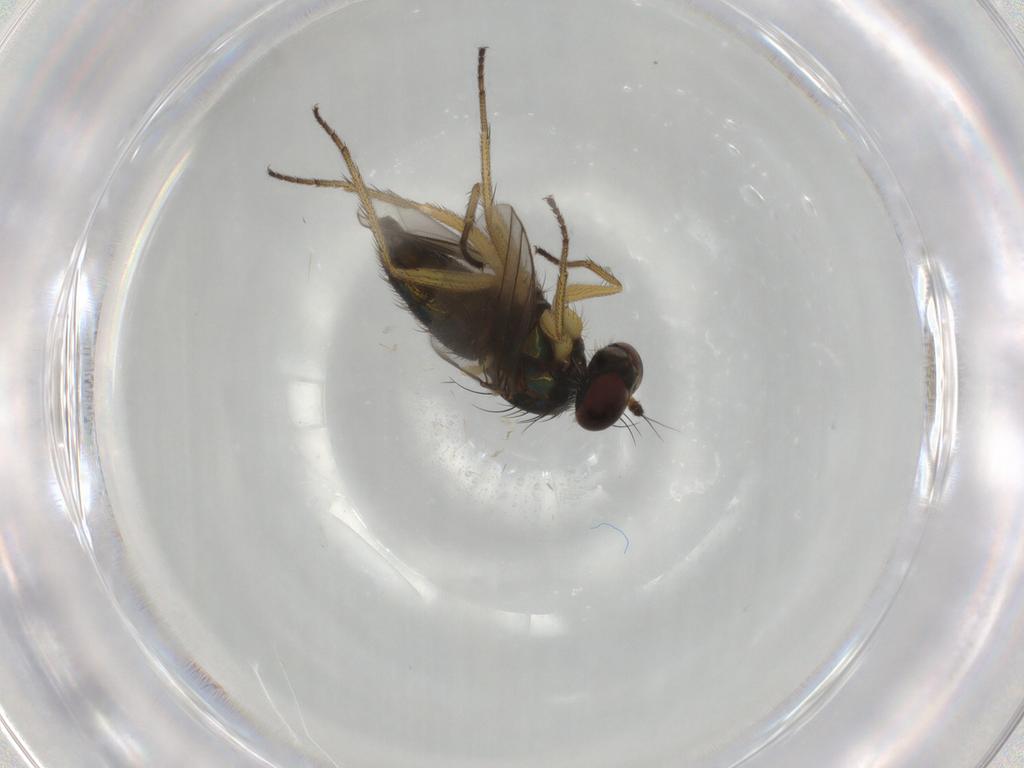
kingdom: Animalia
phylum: Arthropoda
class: Insecta
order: Diptera
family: Dolichopodidae
